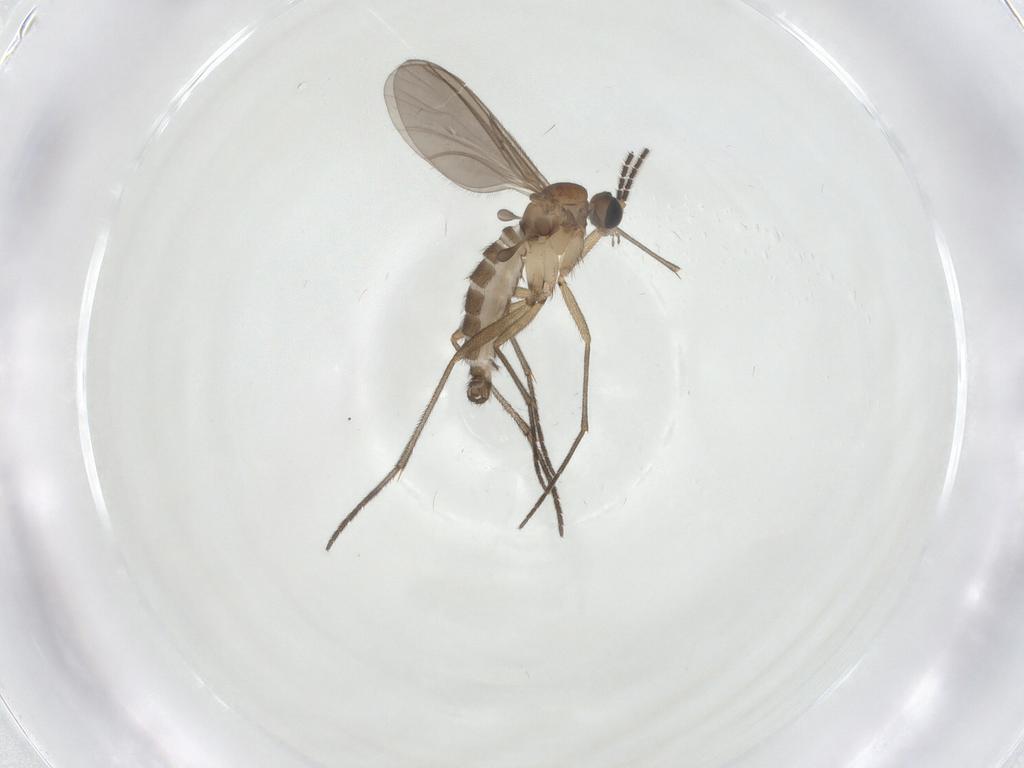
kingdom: Animalia
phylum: Arthropoda
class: Insecta
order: Diptera
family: Sciaridae
